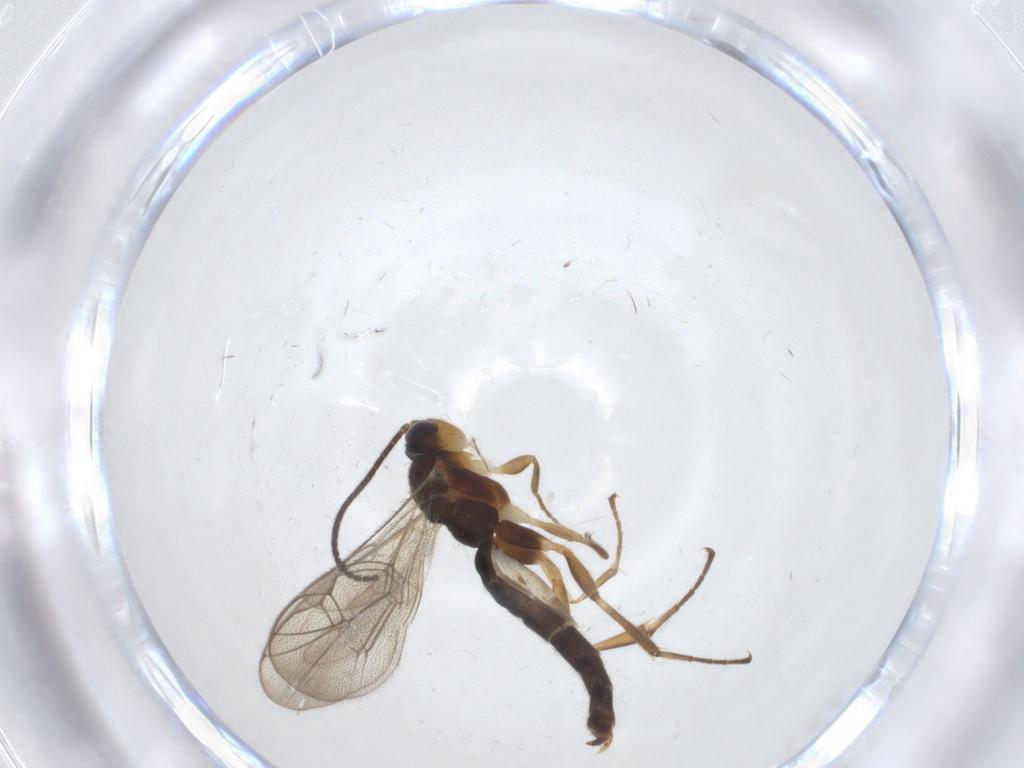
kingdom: Animalia
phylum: Arthropoda
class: Insecta
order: Hymenoptera
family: Ichneumonidae
